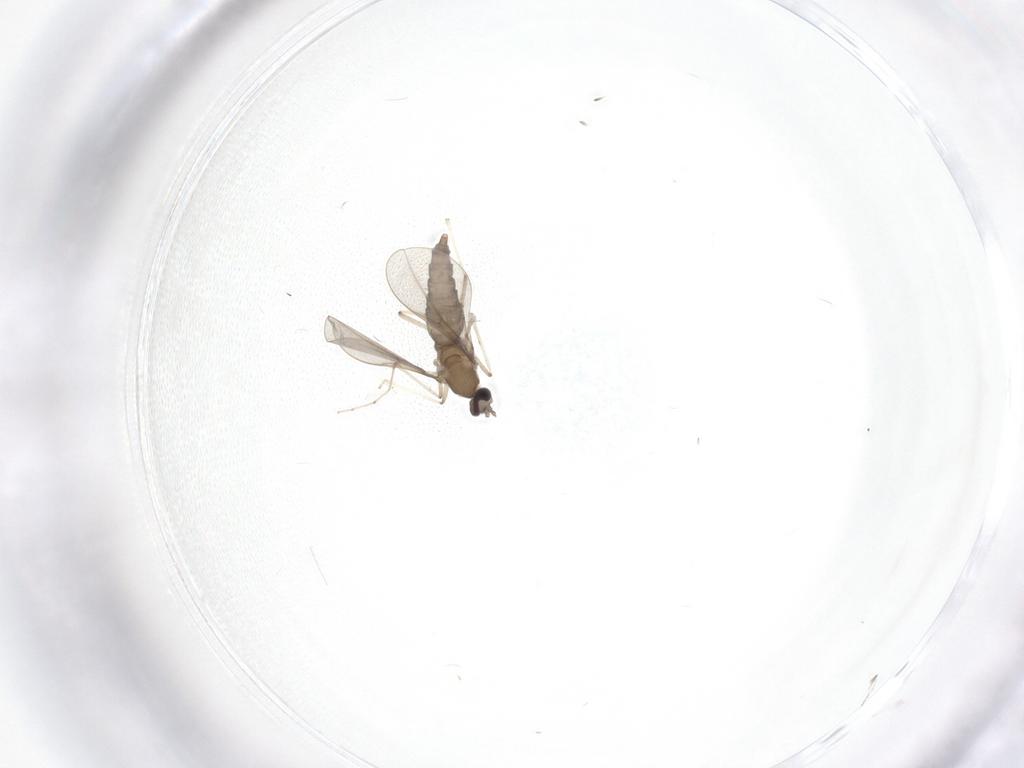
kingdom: Animalia
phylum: Arthropoda
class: Insecta
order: Diptera
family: Cecidomyiidae
